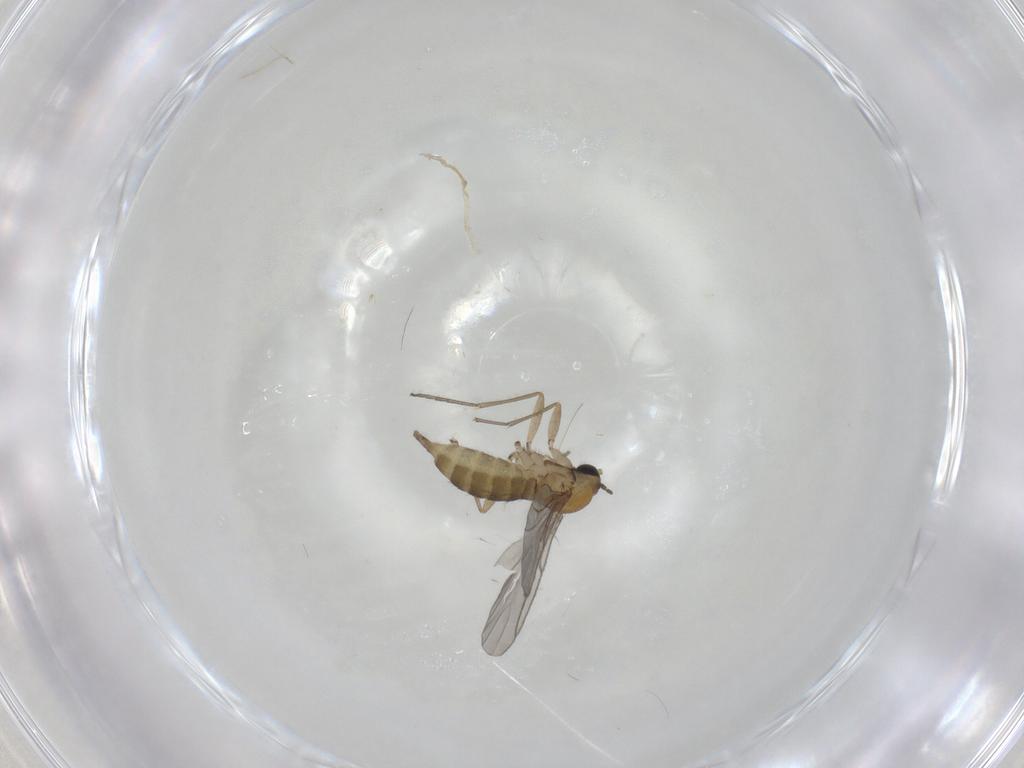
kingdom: Animalia
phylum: Arthropoda
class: Insecta
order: Diptera
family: Sciaridae
